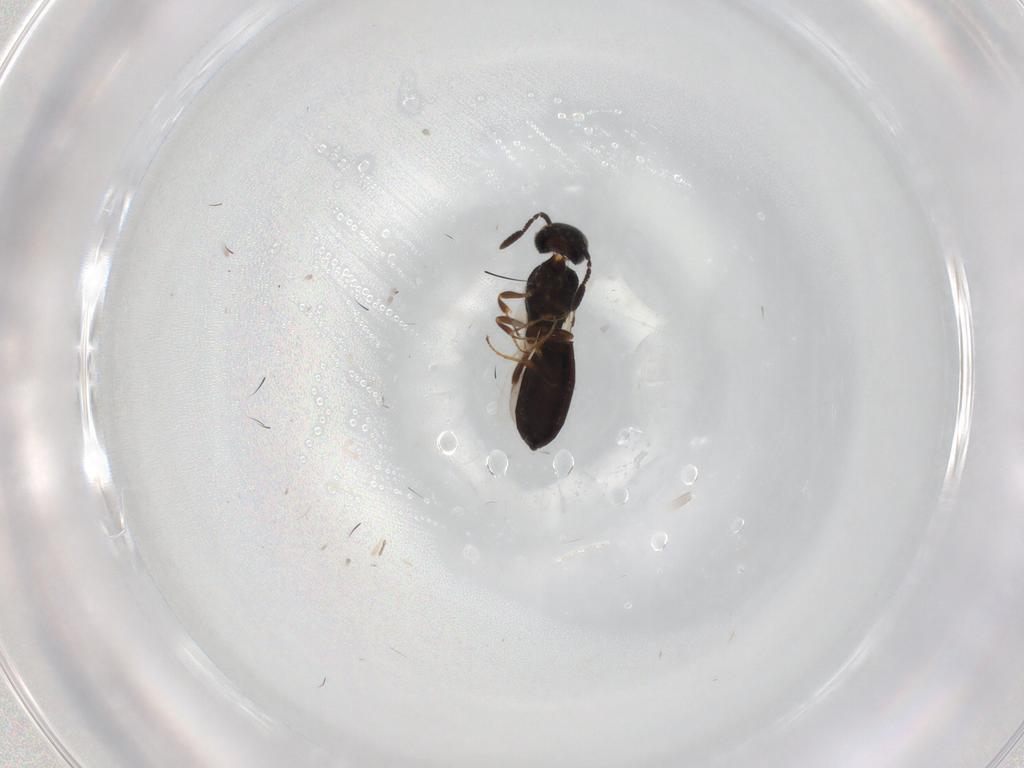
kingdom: Animalia
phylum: Arthropoda
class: Insecta
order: Hymenoptera
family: Scelionidae
